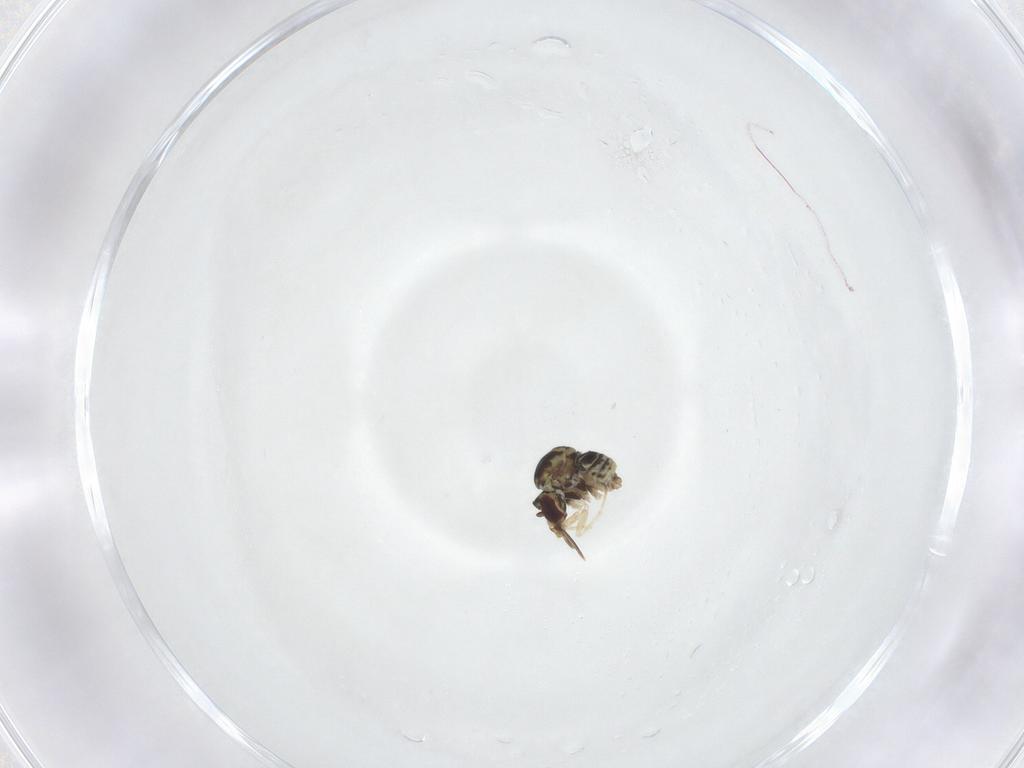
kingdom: Animalia
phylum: Arthropoda
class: Insecta
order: Diptera
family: Bombyliidae
